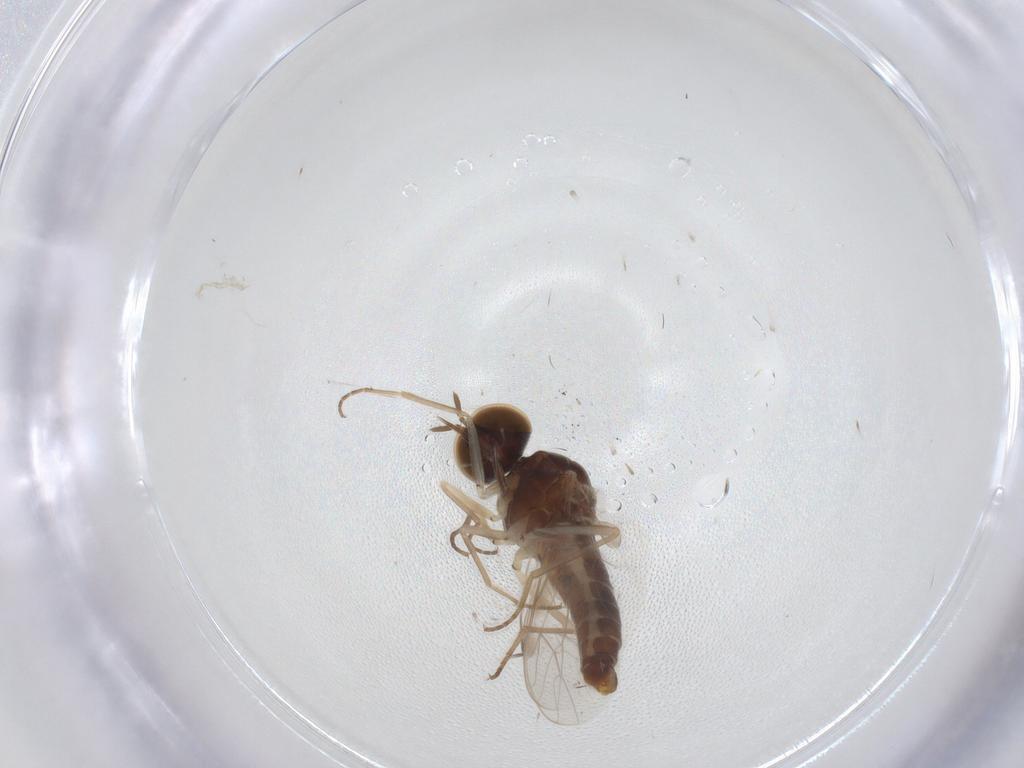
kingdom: Animalia
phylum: Arthropoda
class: Insecta
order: Diptera
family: Scenopinidae
